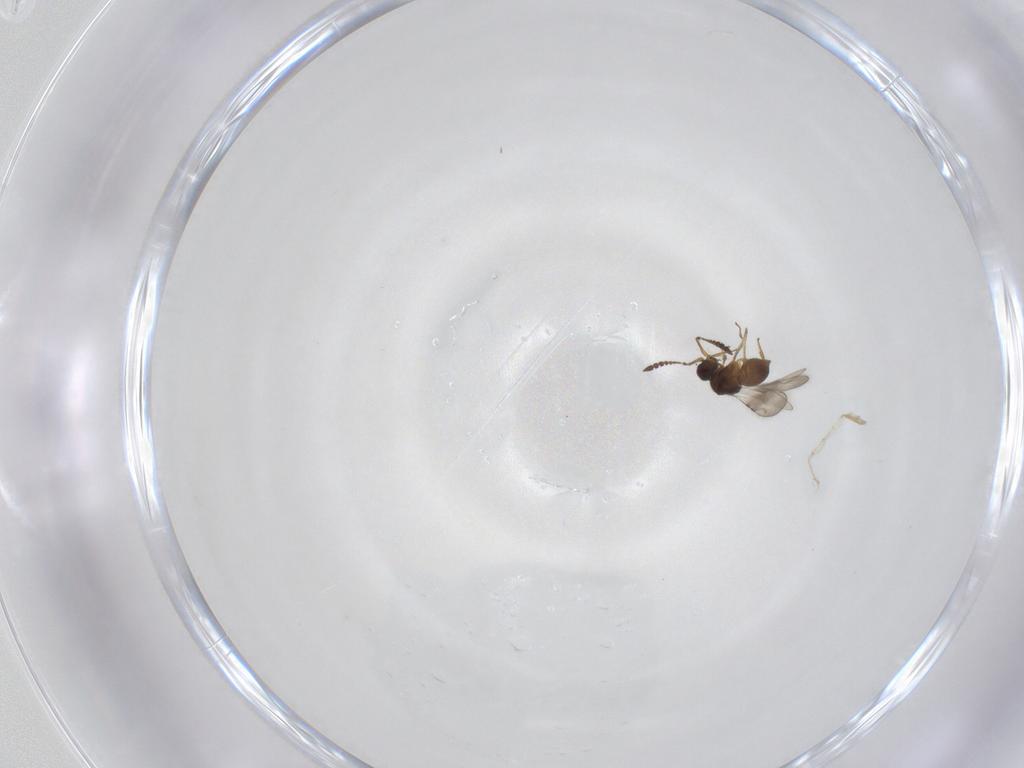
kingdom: Animalia
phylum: Arthropoda
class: Insecta
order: Hymenoptera
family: Ceraphronidae
